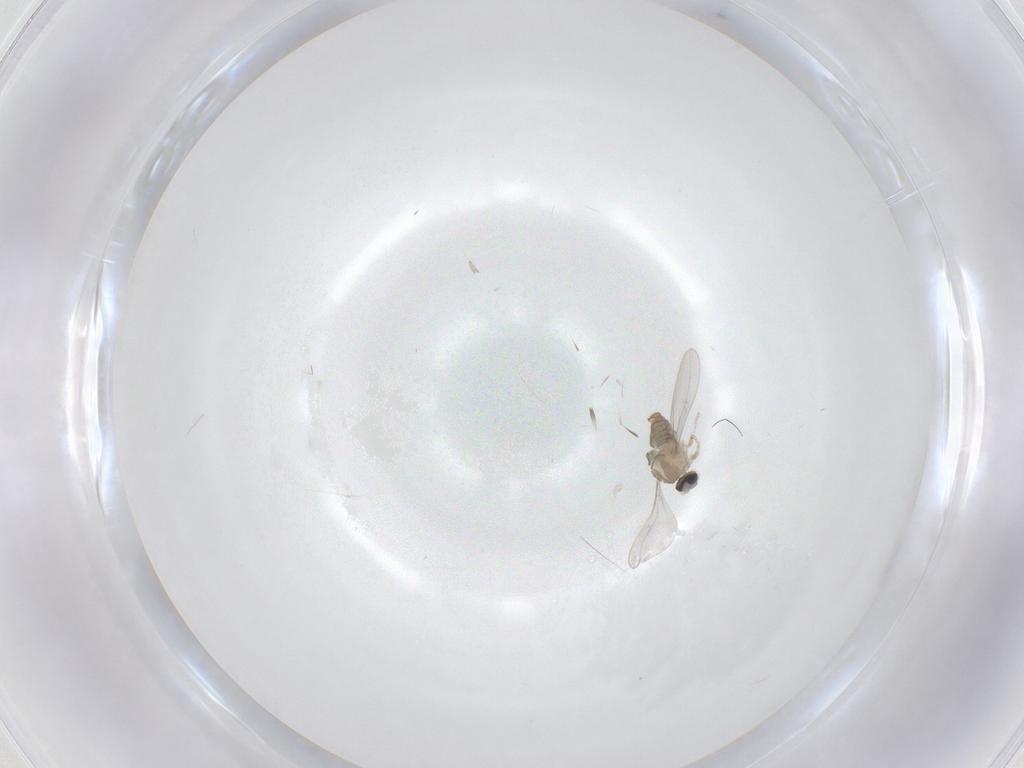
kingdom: Animalia
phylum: Arthropoda
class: Insecta
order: Diptera
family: Cecidomyiidae
